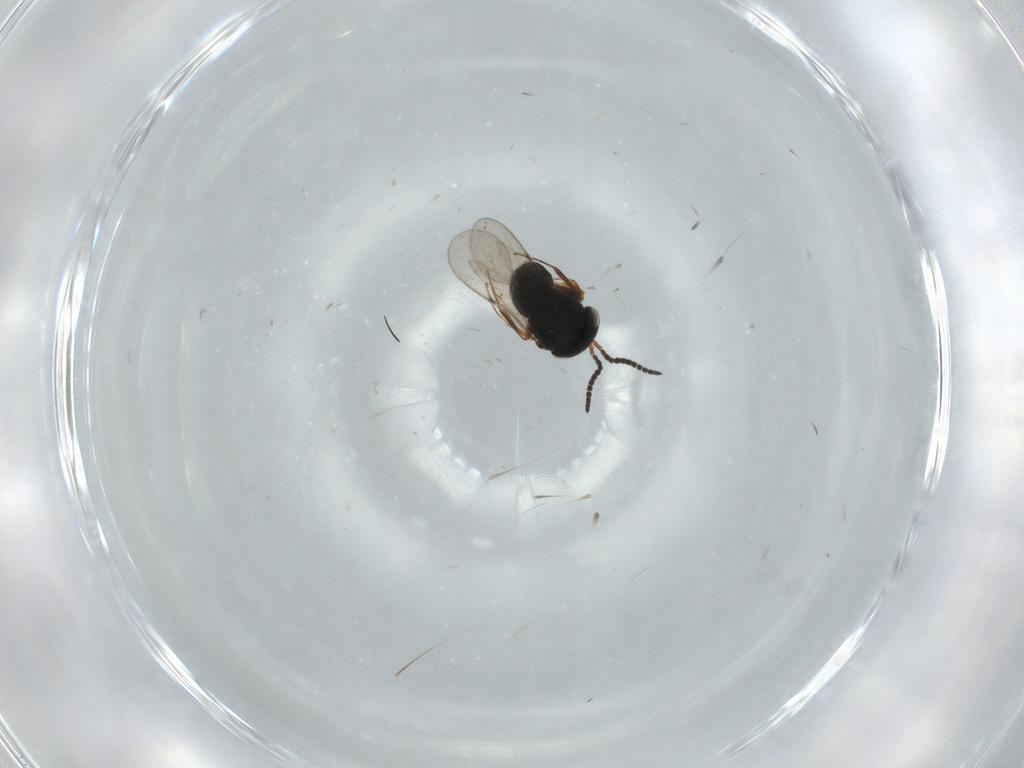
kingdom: Animalia
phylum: Arthropoda
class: Insecta
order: Hymenoptera
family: Scelionidae
